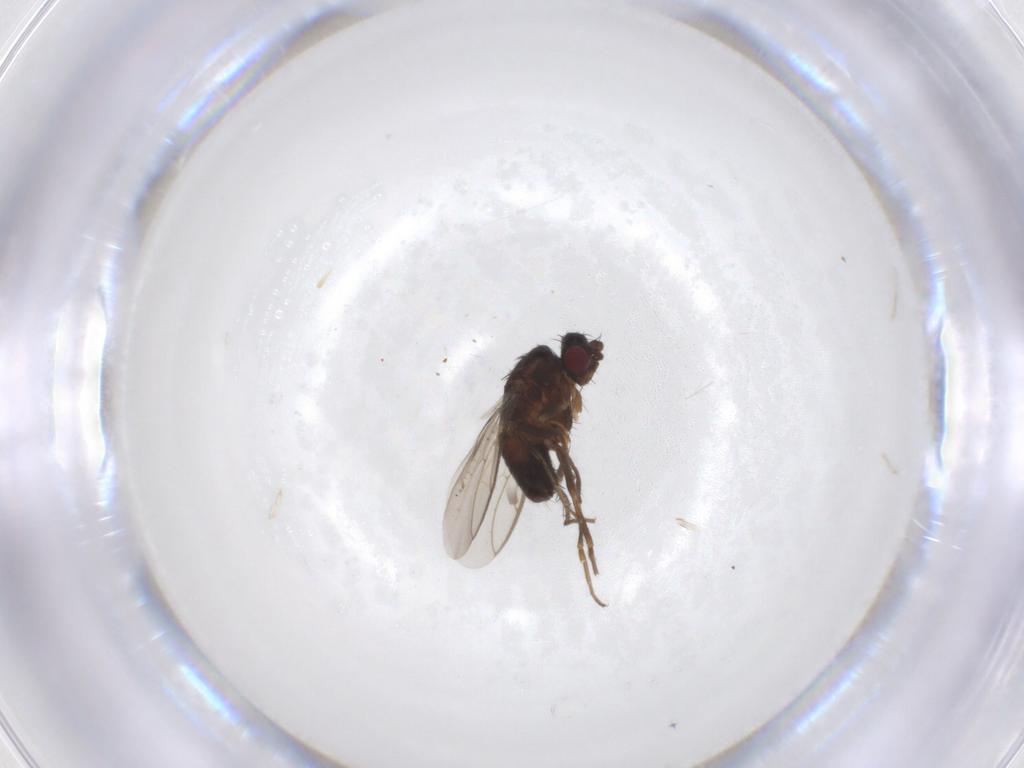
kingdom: Animalia
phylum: Arthropoda
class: Insecta
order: Diptera
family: Sphaeroceridae
